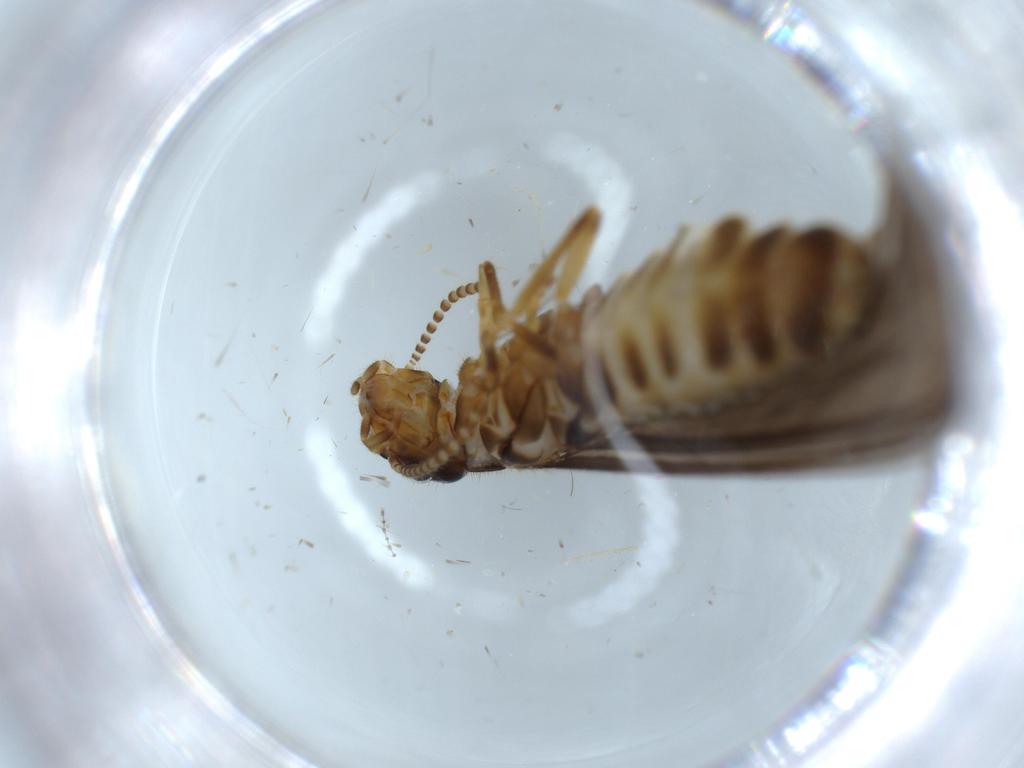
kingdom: Animalia
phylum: Arthropoda
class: Insecta
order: Blattodea
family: Termitidae
